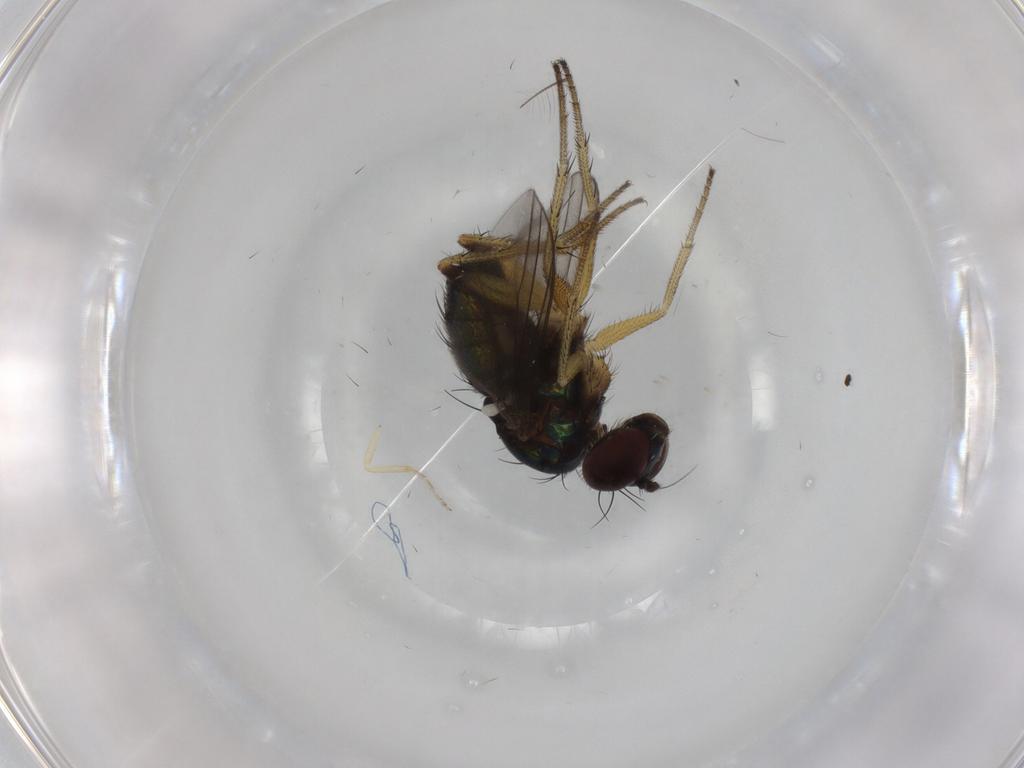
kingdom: Animalia
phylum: Arthropoda
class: Insecta
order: Diptera
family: Dolichopodidae
